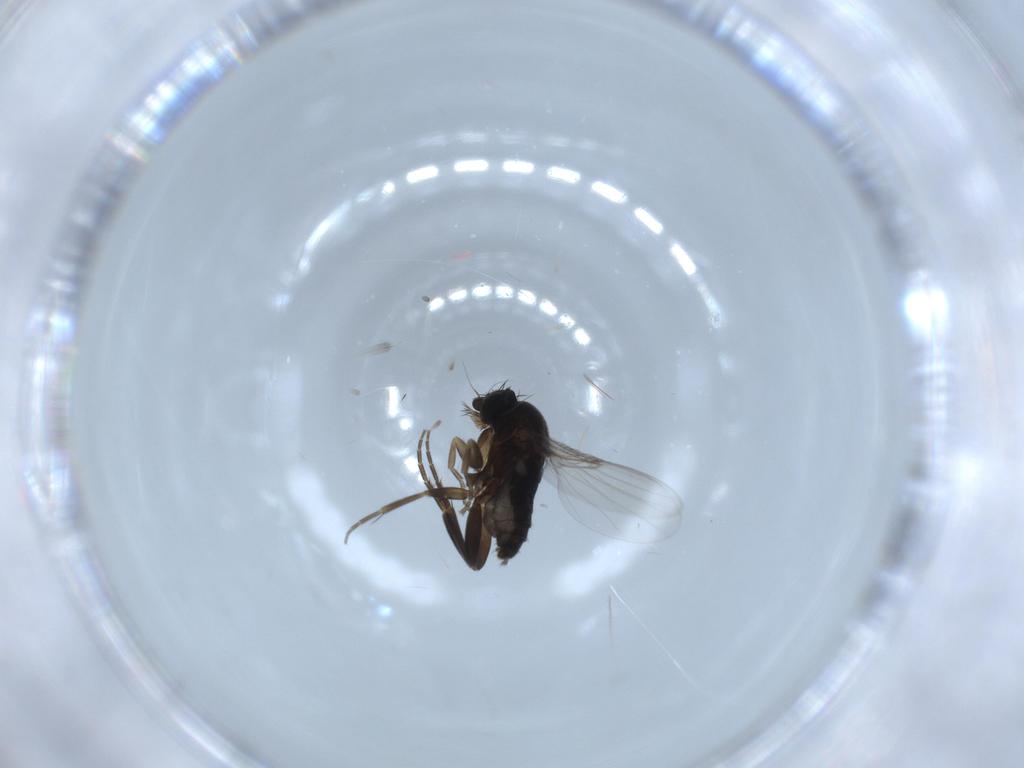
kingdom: Animalia
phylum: Arthropoda
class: Insecta
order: Diptera
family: Phoridae
